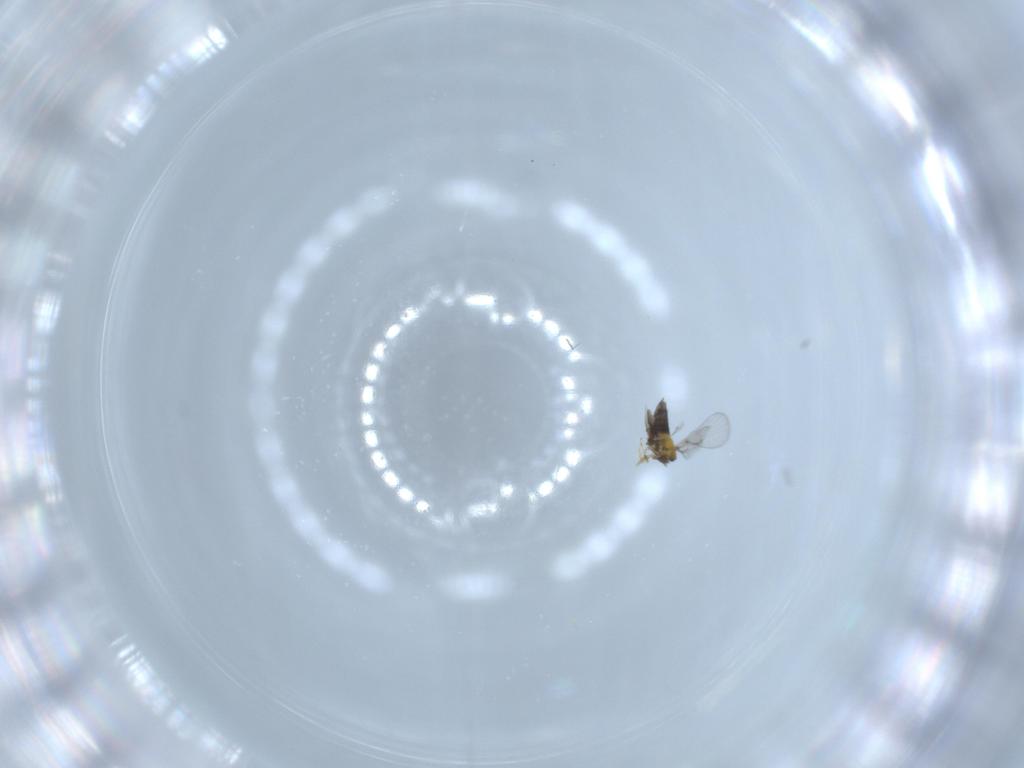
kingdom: Animalia
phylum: Arthropoda
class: Insecta
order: Hymenoptera
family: Trichogrammatidae
